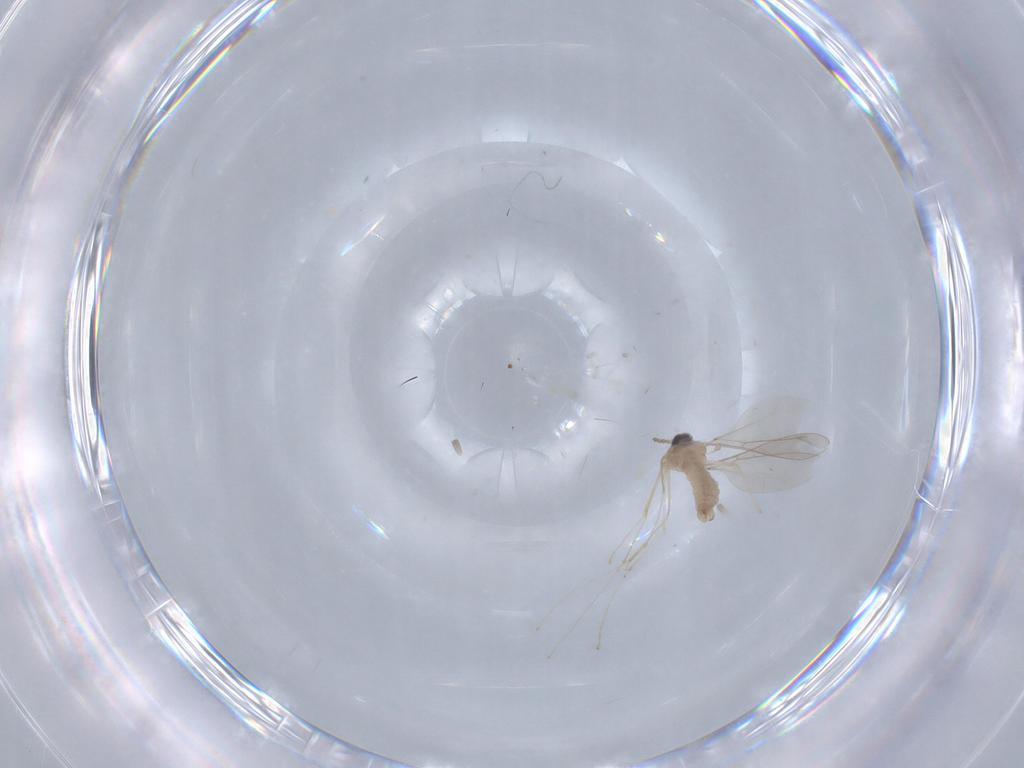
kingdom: Animalia
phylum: Arthropoda
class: Insecta
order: Diptera
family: Cecidomyiidae
